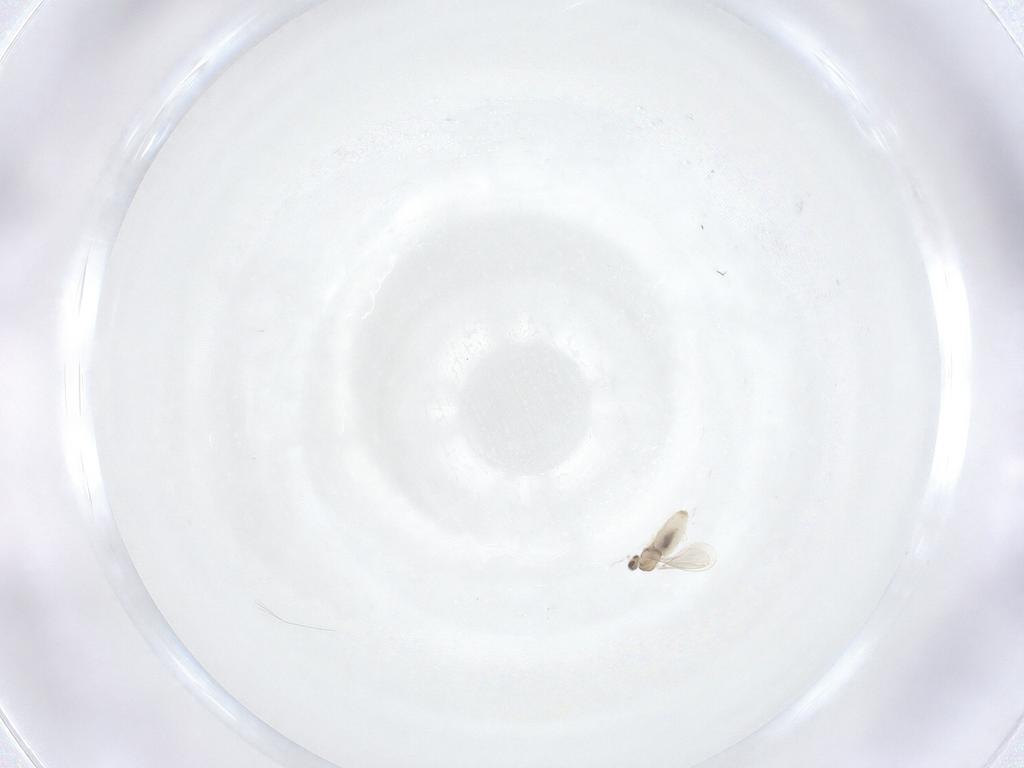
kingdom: Animalia
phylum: Arthropoda
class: Insecta
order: Diptera
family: Cecidomyiidae
